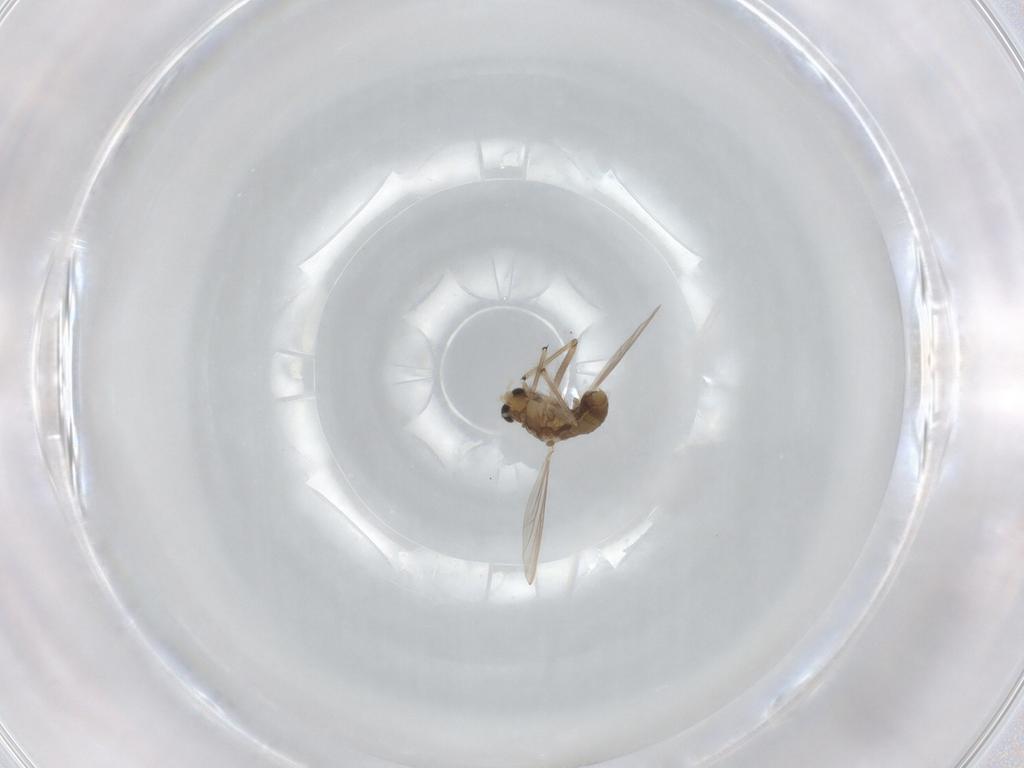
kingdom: Animalia
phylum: Arthropoda
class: Insecta
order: Diptera
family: Chironomidae
